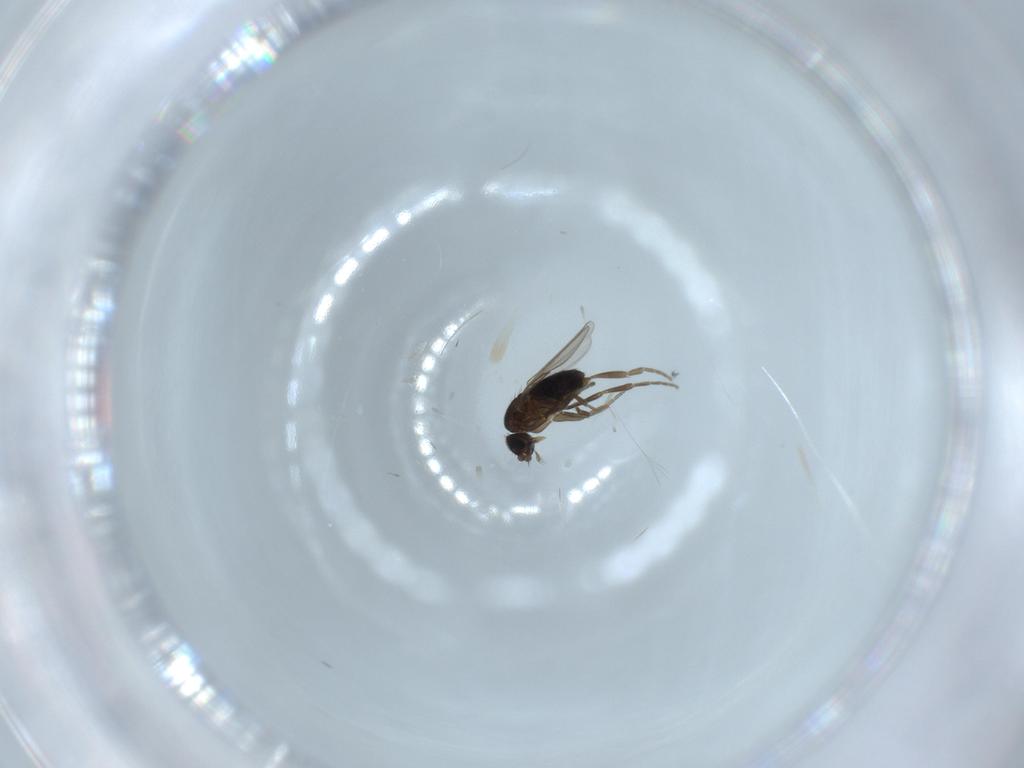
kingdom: Animalia
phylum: Arthropoda
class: Insecta
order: Diptera
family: Phoridae
